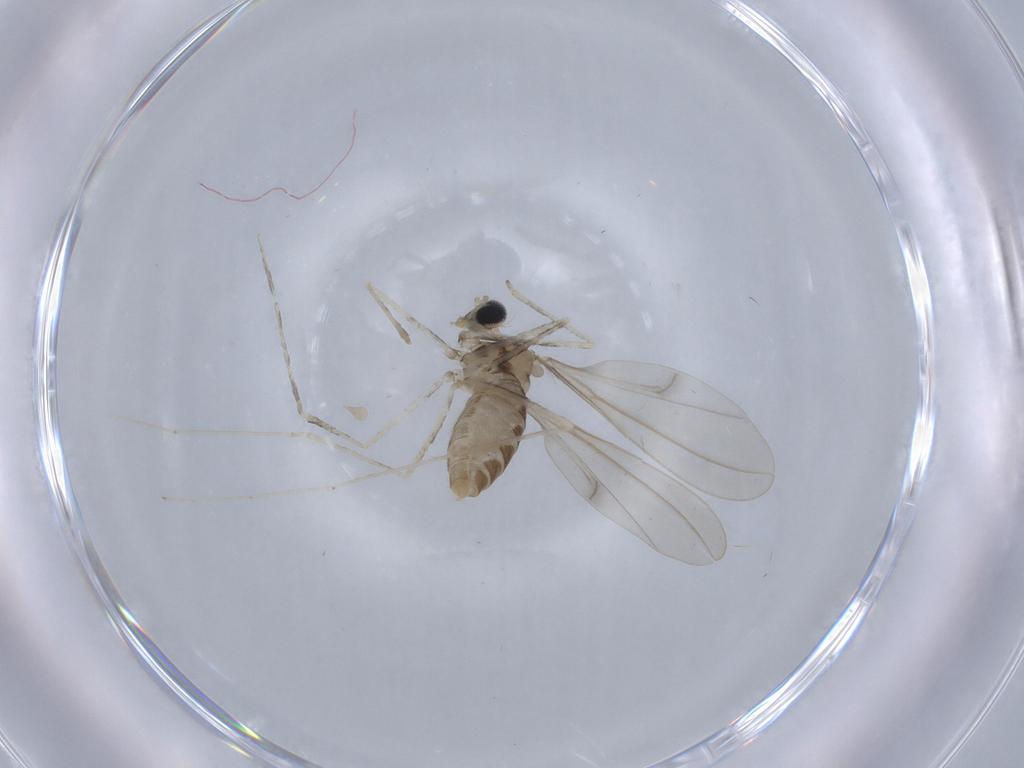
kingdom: Animalia
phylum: Arthropoda
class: Insecta
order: Diptera
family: Cecidomyiidae
